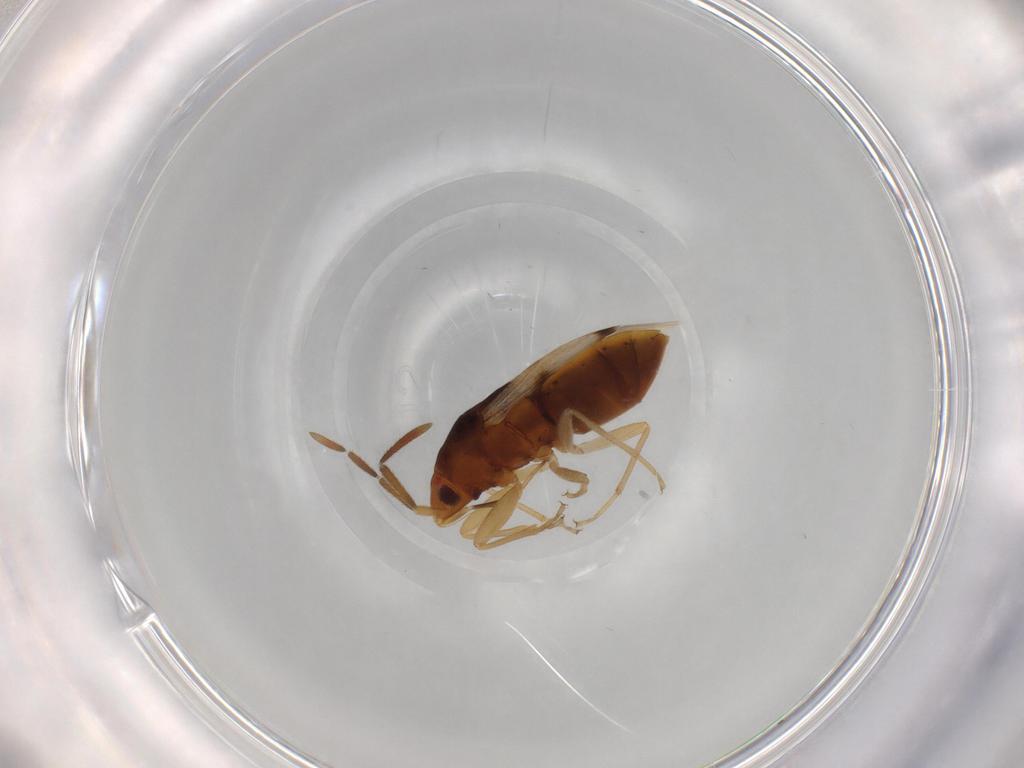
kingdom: Animalia
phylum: Arthropoda
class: Insecta
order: Hemiptera
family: Rhyparochromidae
